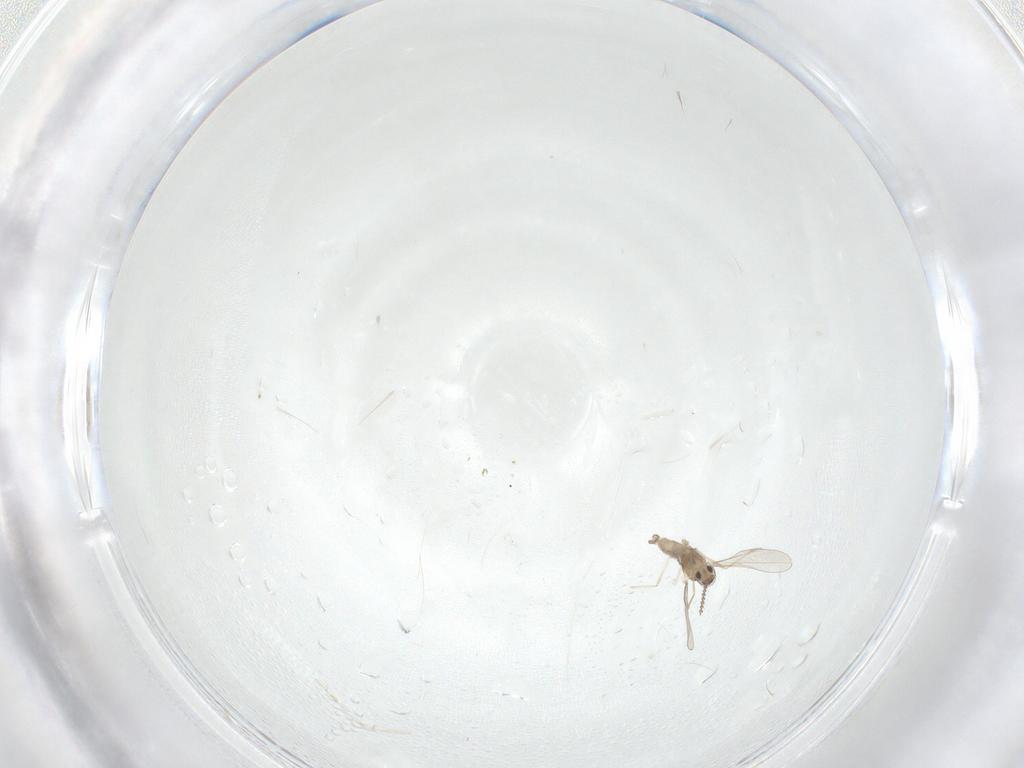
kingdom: Animalia
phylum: Arthropoda
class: Insecta
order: Diptera
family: Cecidomyiidae
